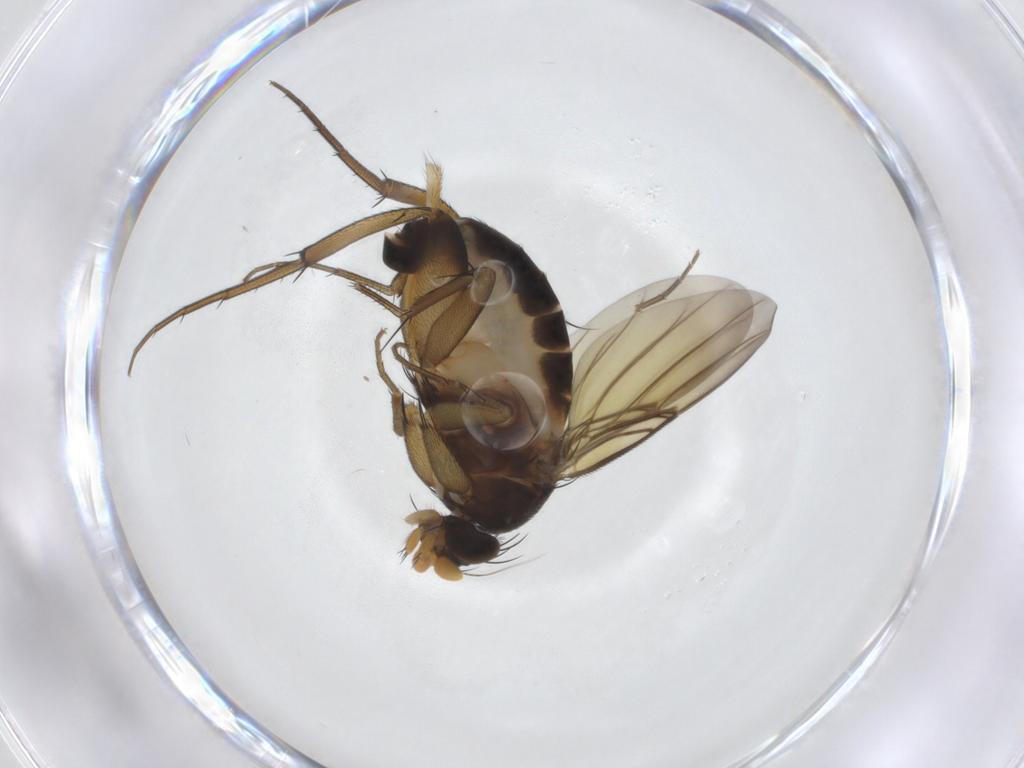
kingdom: Animalia
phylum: Arthropoda
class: Insecta
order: Diptera
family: Phoridae
